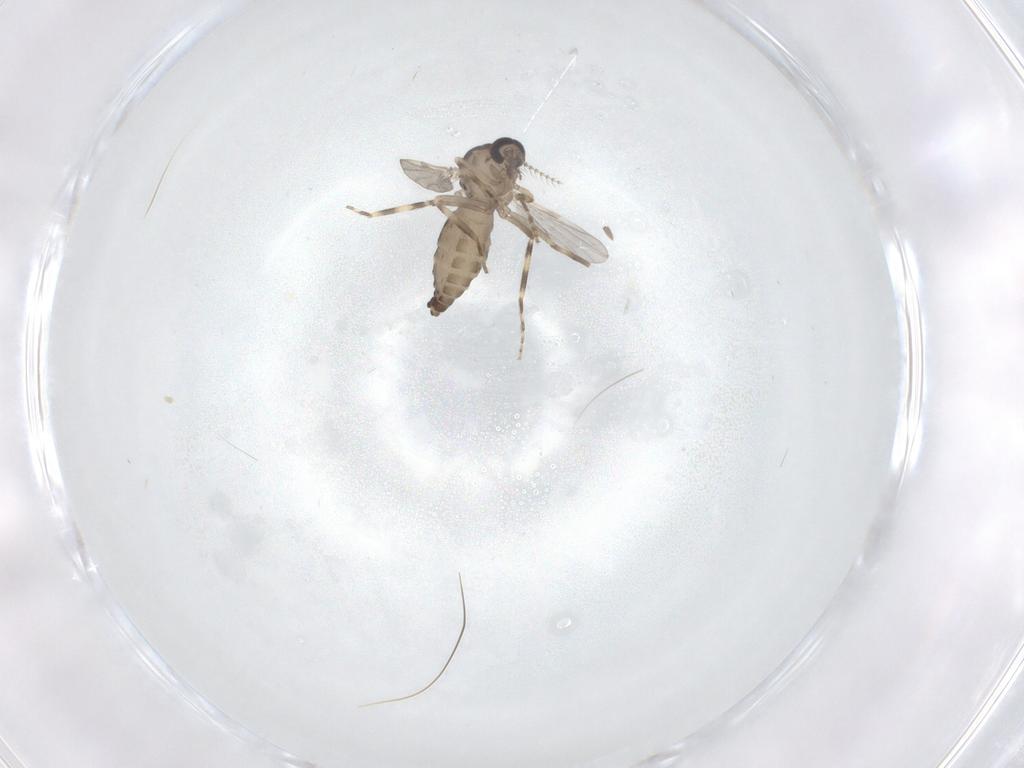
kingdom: Animalia
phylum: Arthropoda
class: Insecta
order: Diptera
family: Ceratopogonidae
